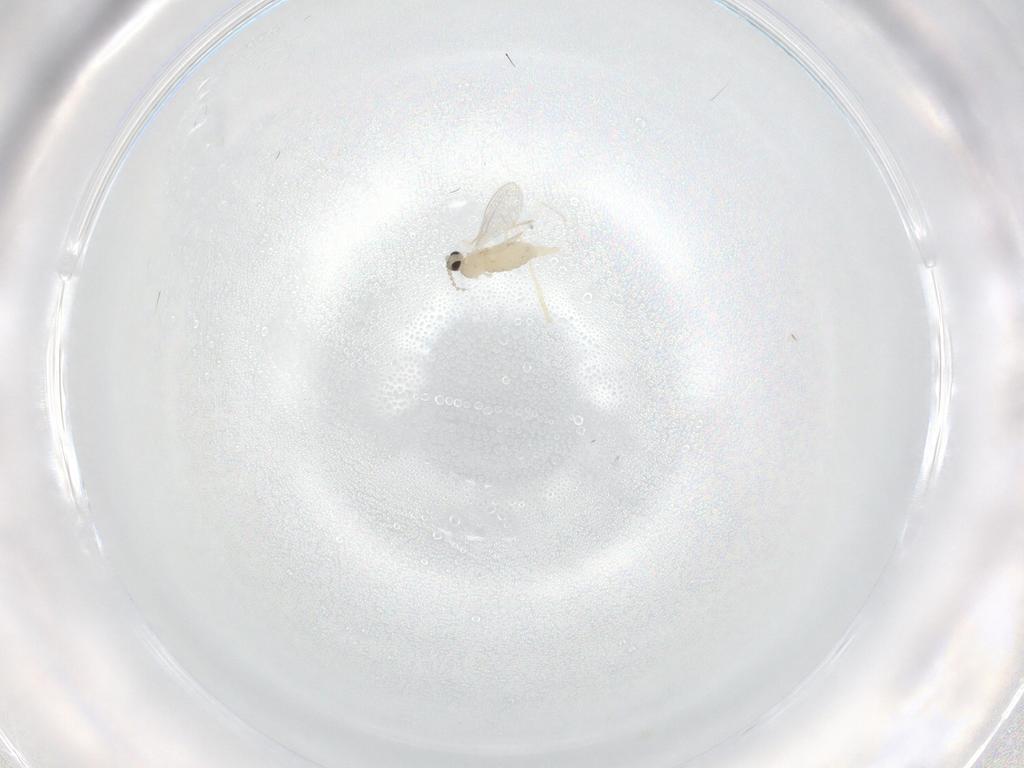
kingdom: Animalia
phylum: Arthropoda
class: Insecta
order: Diptera
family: Cecidomyiidae
